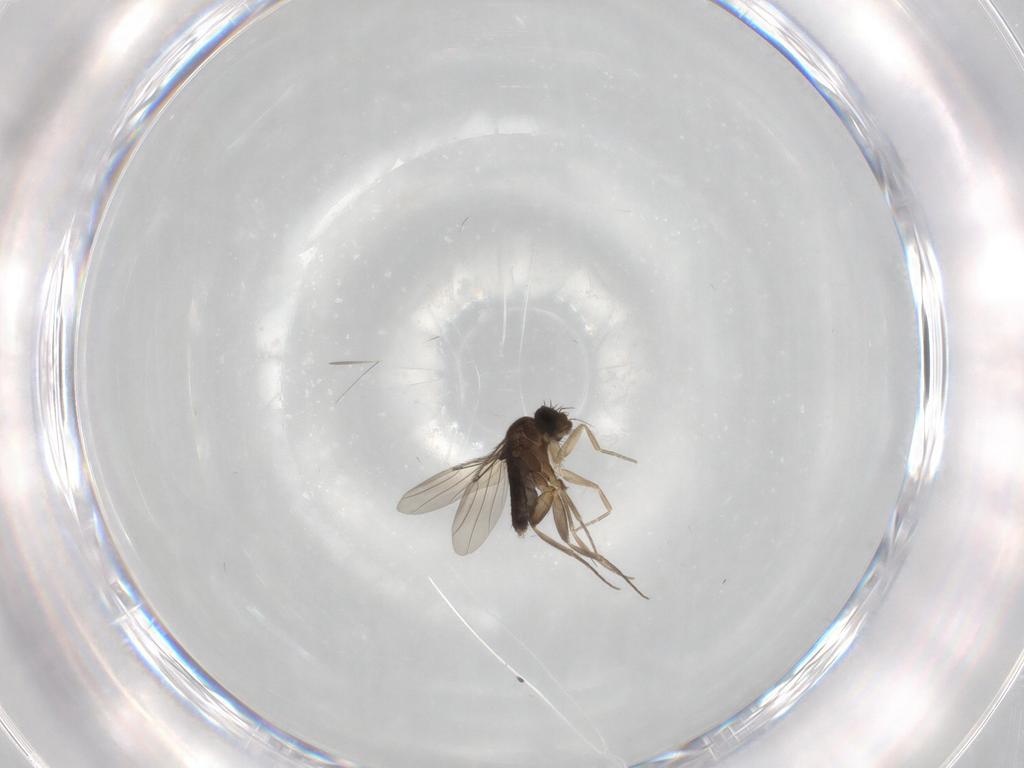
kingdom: Animalia
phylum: Arthropoda
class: Insecta
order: Diptera
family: Phoridae
